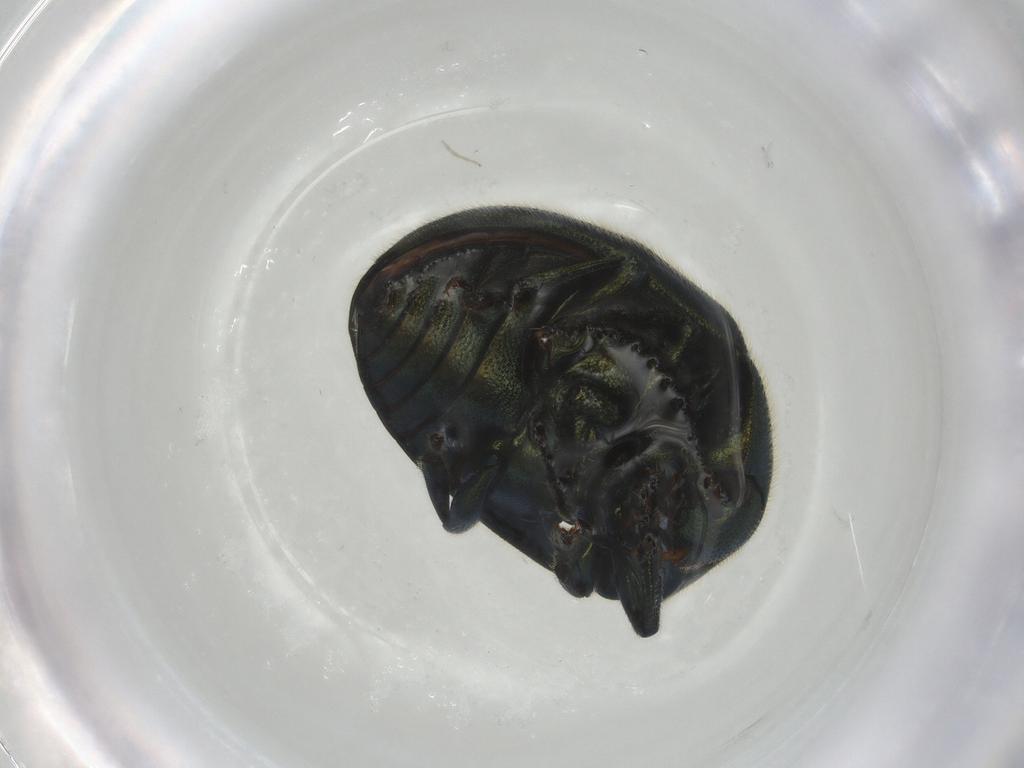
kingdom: Animalia
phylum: Arthropoda
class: Insecta
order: Coleoptera
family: Chrysomelidae
